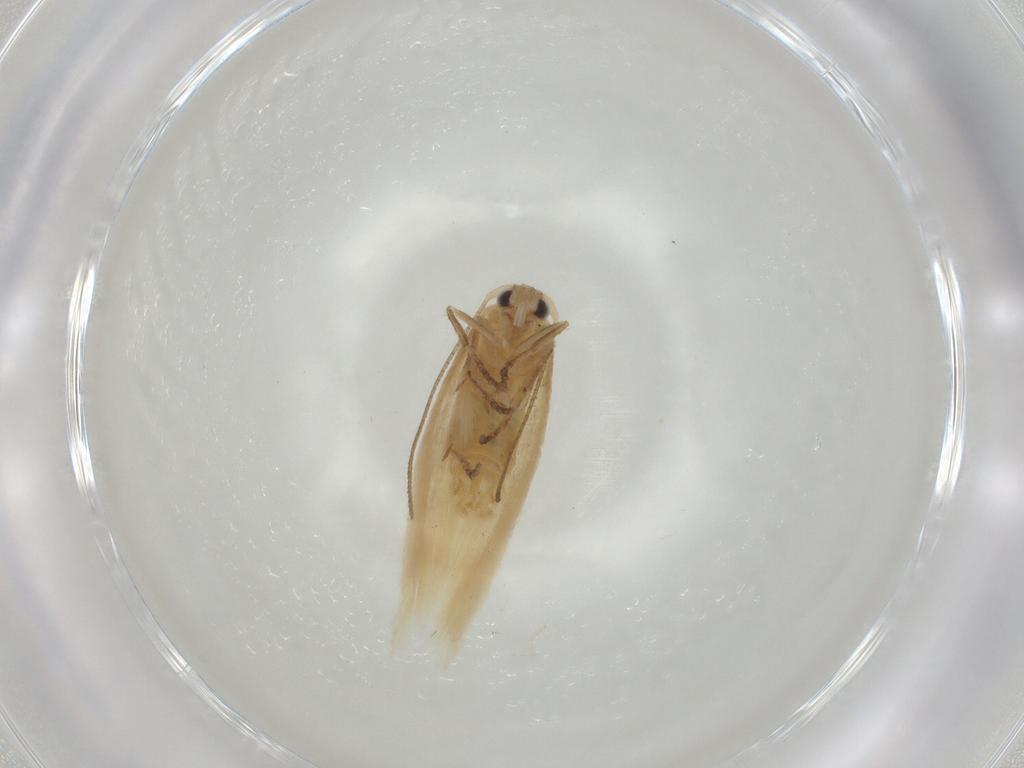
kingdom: Animalia
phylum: Arthropoda
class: Insecta
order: Lepidoptera
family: Bucculatricidae
